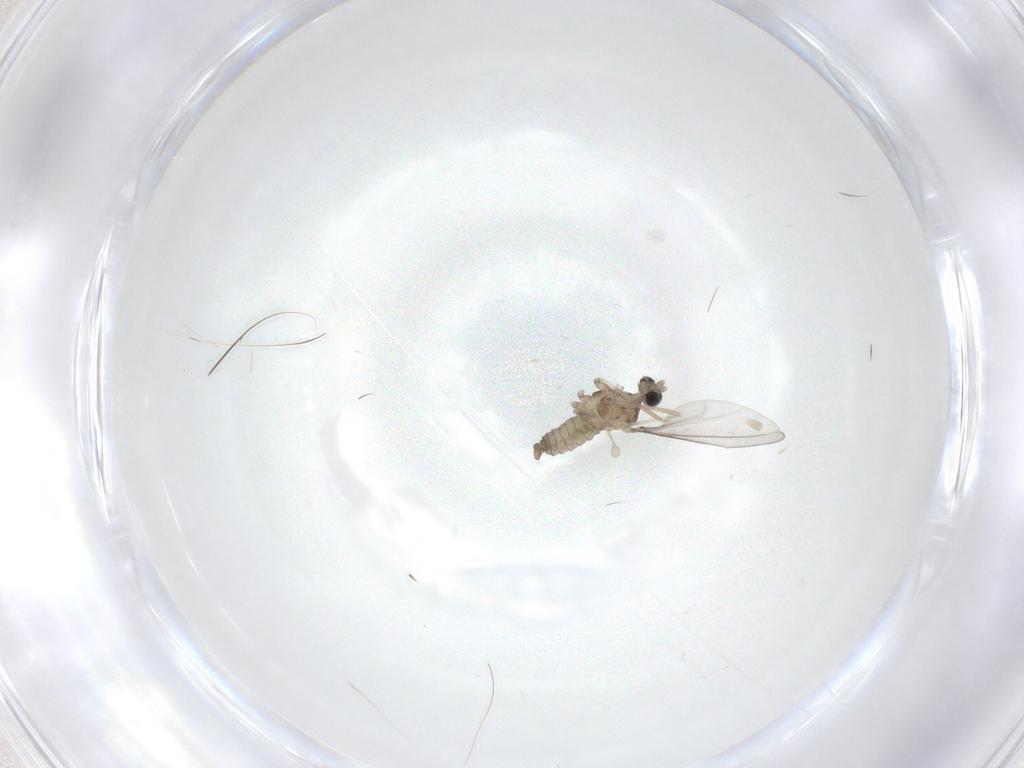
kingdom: Animalia
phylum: Arthropoda
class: Insecta
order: Diptera
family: Cecidomyiidae
